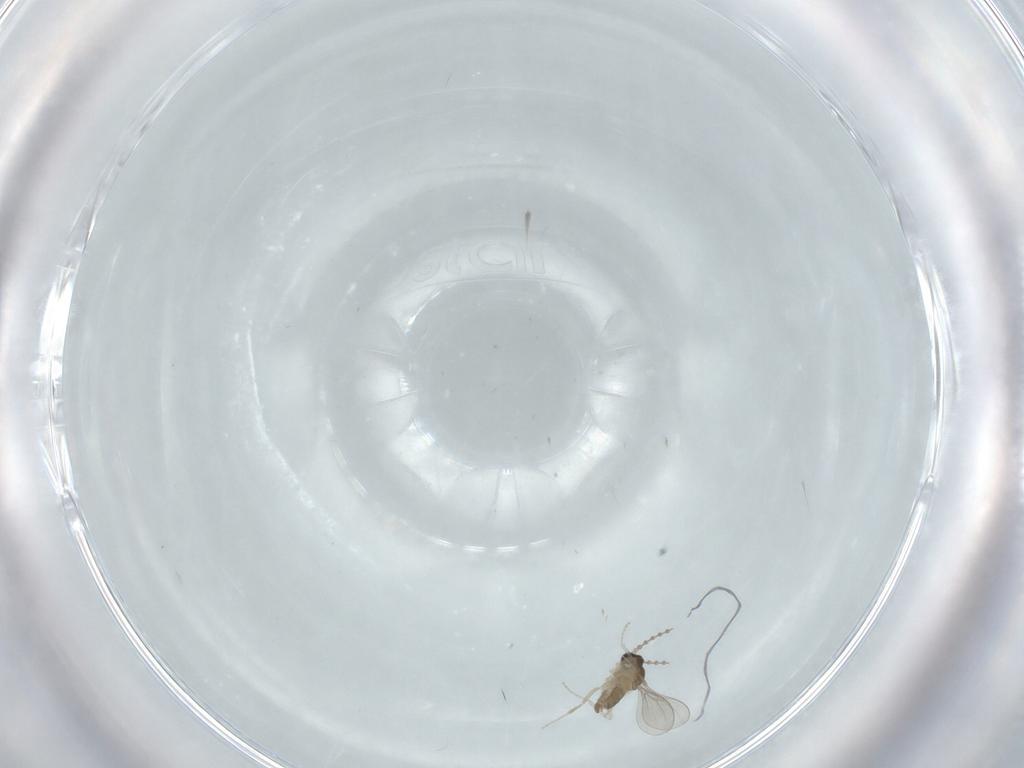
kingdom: Animalia
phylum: Arthropoda
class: Insecta
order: Diptera
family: Cecidomyiidae
